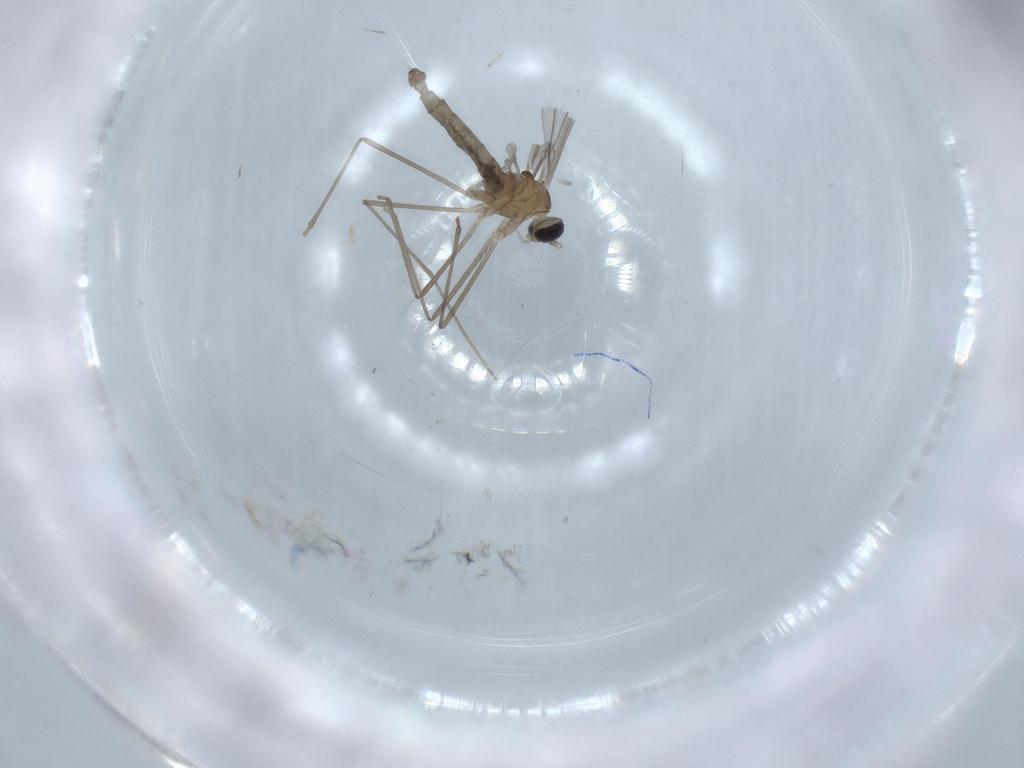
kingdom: Animalia
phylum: Arthropoda
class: Insecta
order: Diptera
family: Cecidomyiidae
